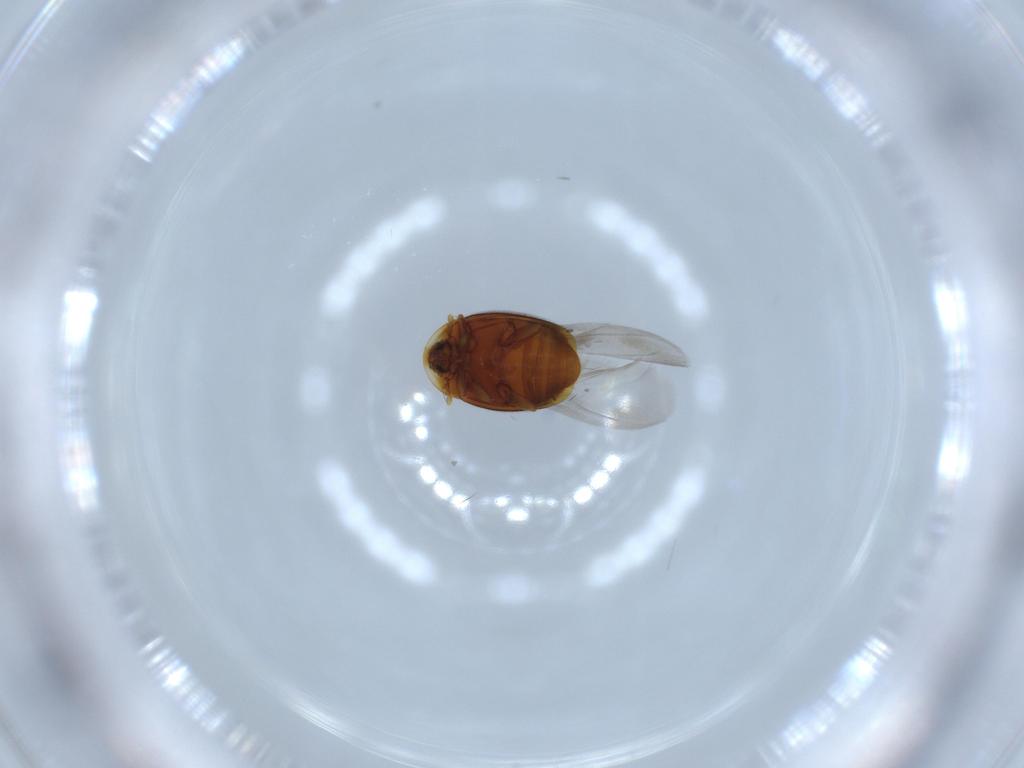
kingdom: Animalia
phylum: Arthropoda
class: Insecta
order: Coleoptera
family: Corylophidae
